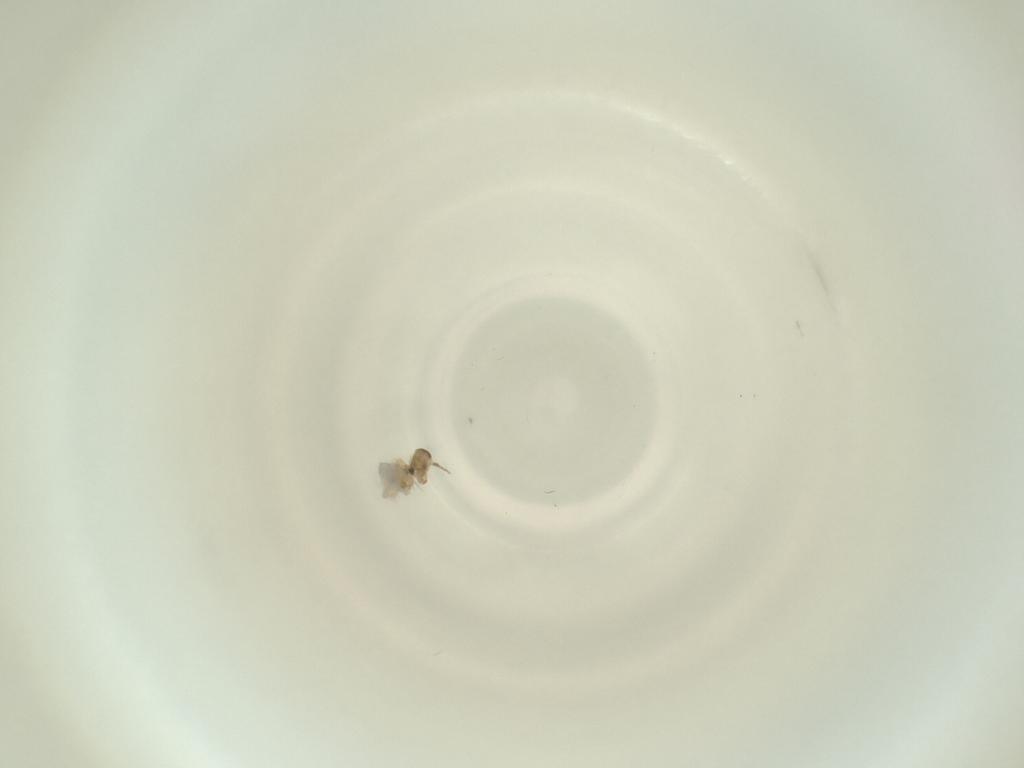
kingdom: Animalia
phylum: Arthropoda
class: Insecta
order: Diptera
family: Cecidomyiidae
